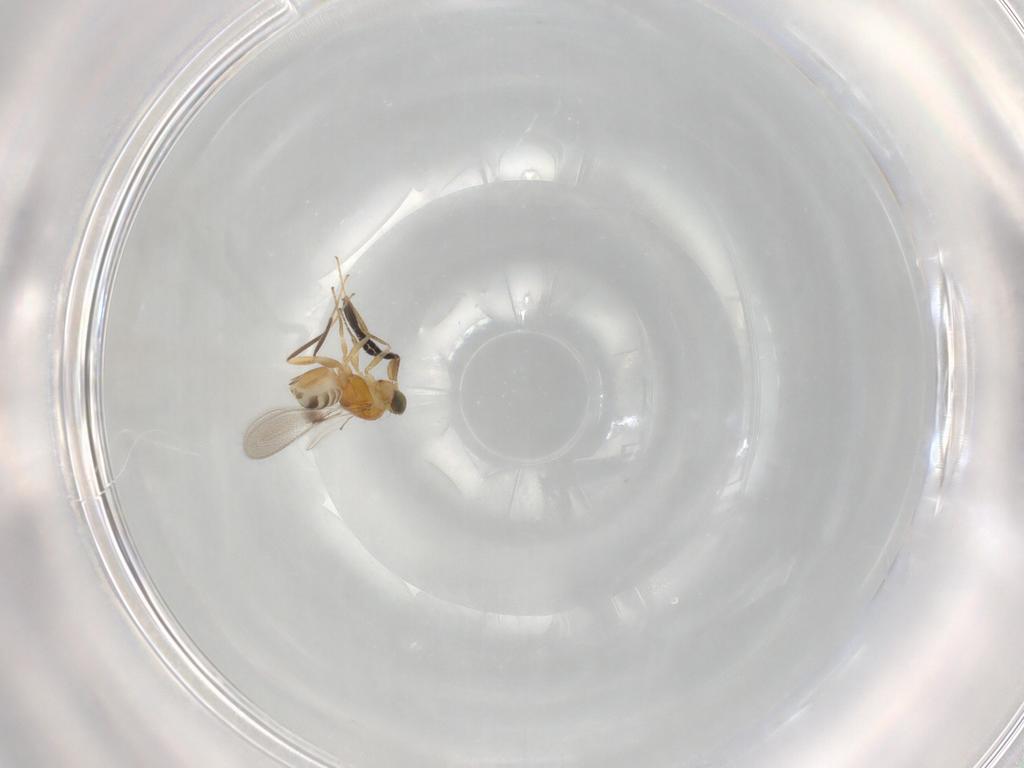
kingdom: Animalia
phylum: Arthropoda
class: Insecta
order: Hymenoptera
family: Mymaridae
